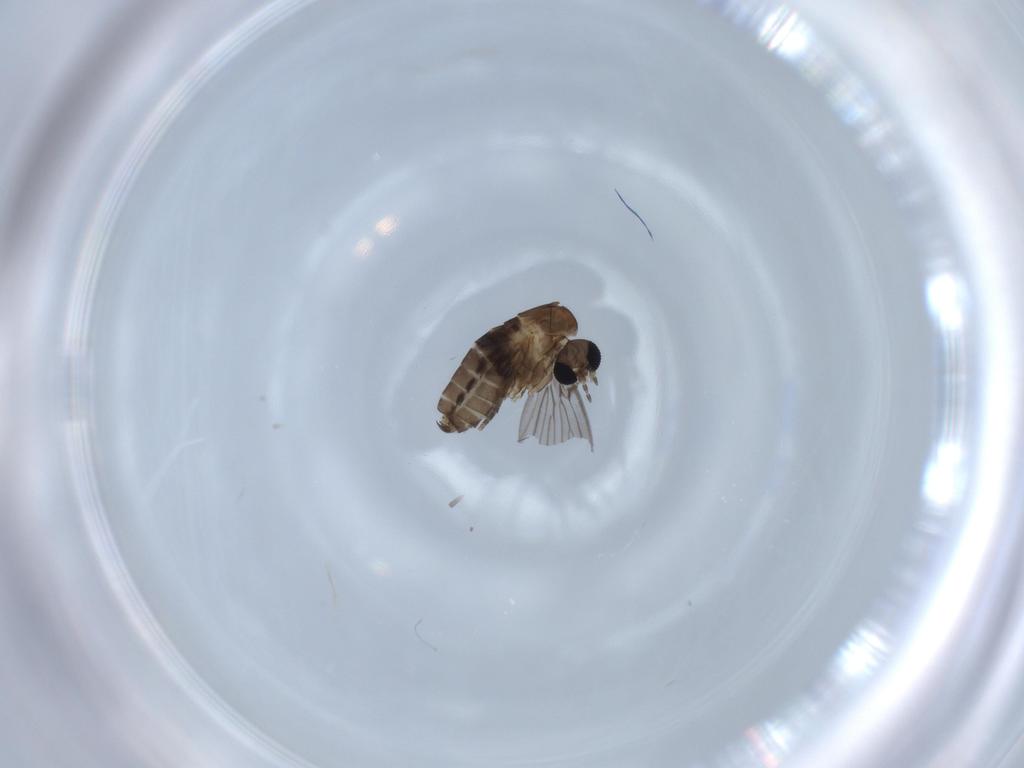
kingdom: Animalia
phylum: Arthropoda
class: Insecta
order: Diptera
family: Psychodidae
